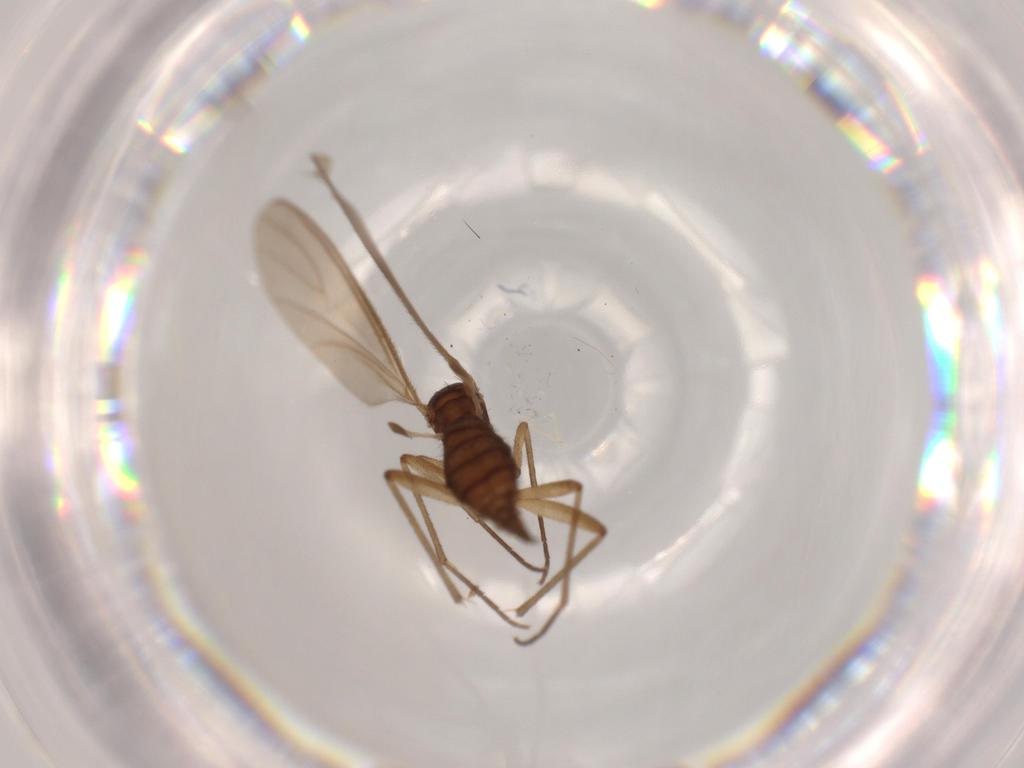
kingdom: Animalia
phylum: Arthropoda
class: Insecta
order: Diptera
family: Sciaridae
